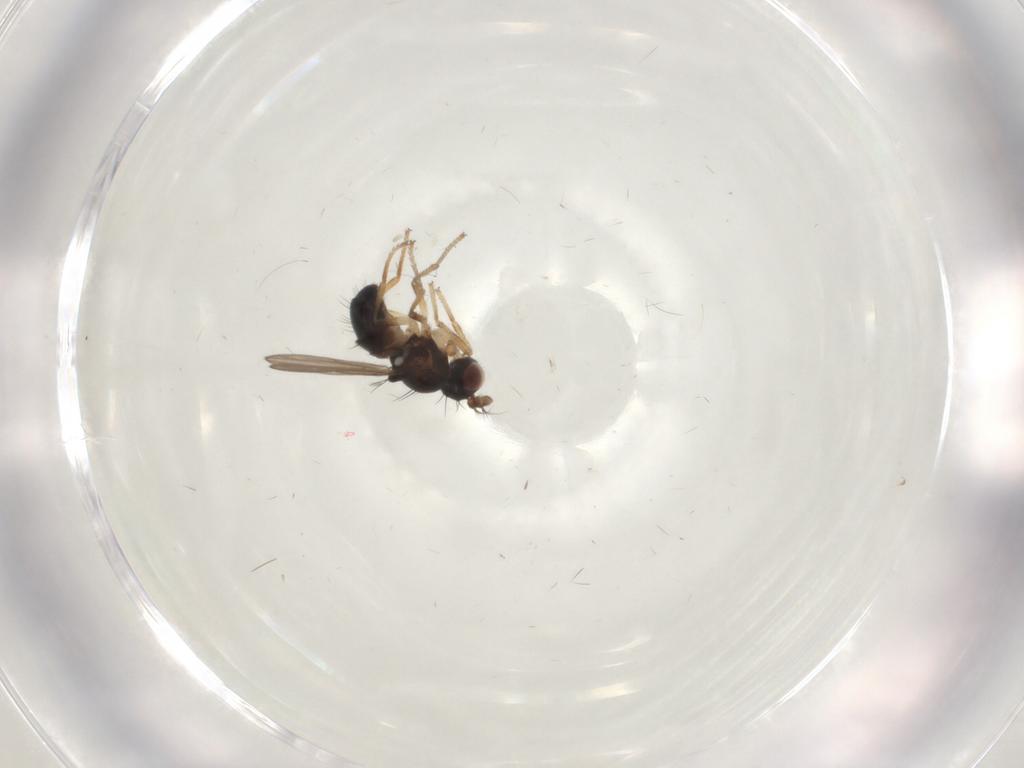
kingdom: Animalia
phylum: Arthropoda
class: Insecta
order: Diptera
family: Ephydridae
